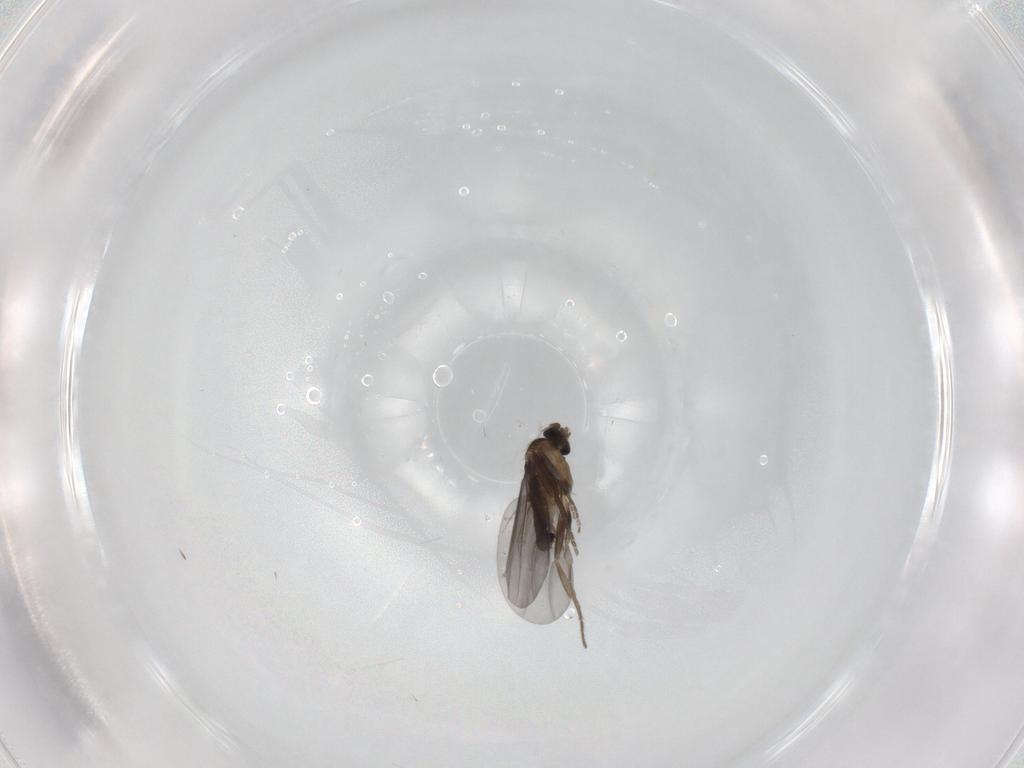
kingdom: Animalia
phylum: Arthropoda
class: Insecta
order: Diptera
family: Phoridae
